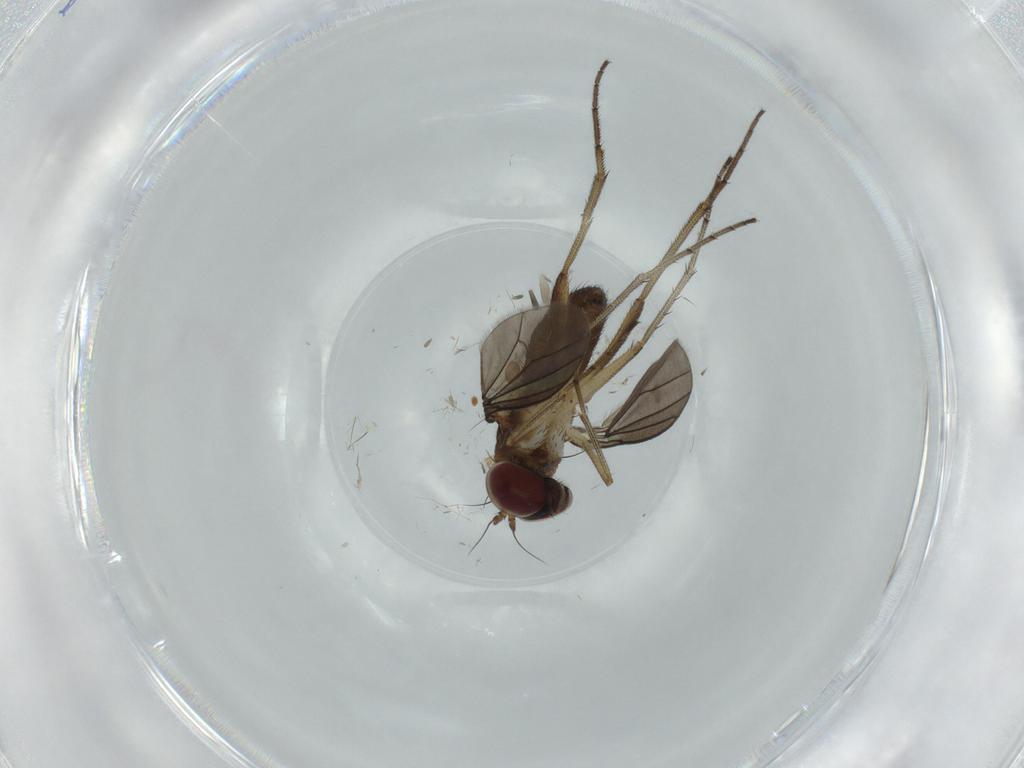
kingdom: Animalia
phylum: Arthropoda
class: Insecta
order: Diptera
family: Dolichopodidae
